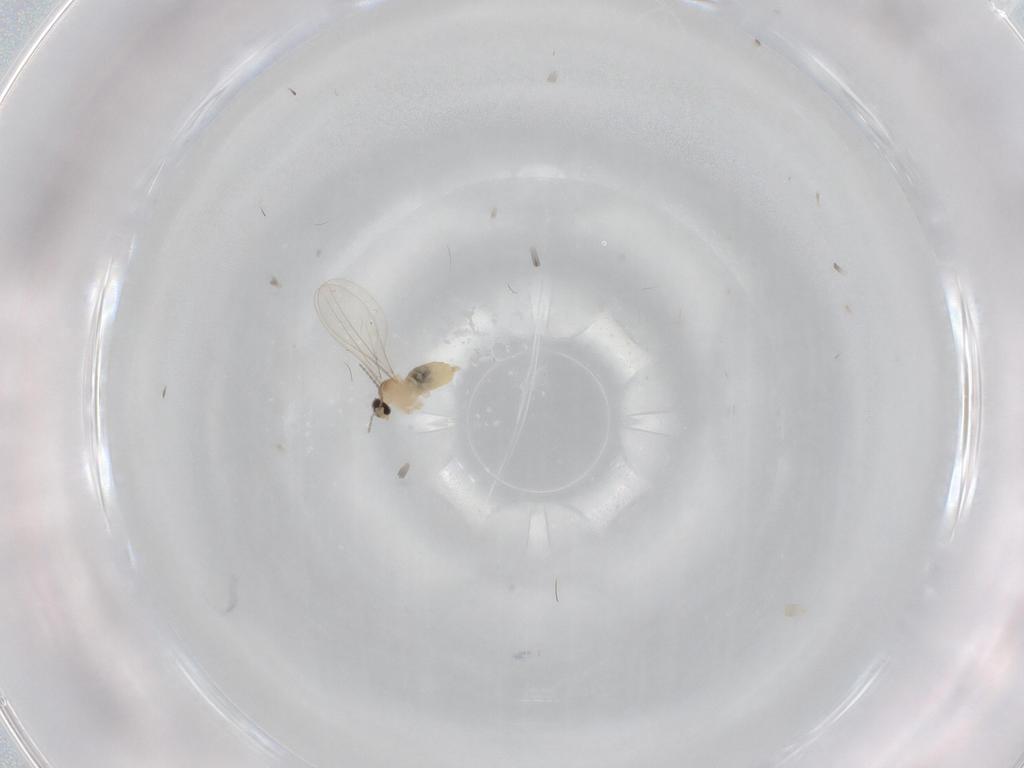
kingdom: Animalia
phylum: Arthropoda
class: Insecta
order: Diptera
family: Cecidomyiidae
